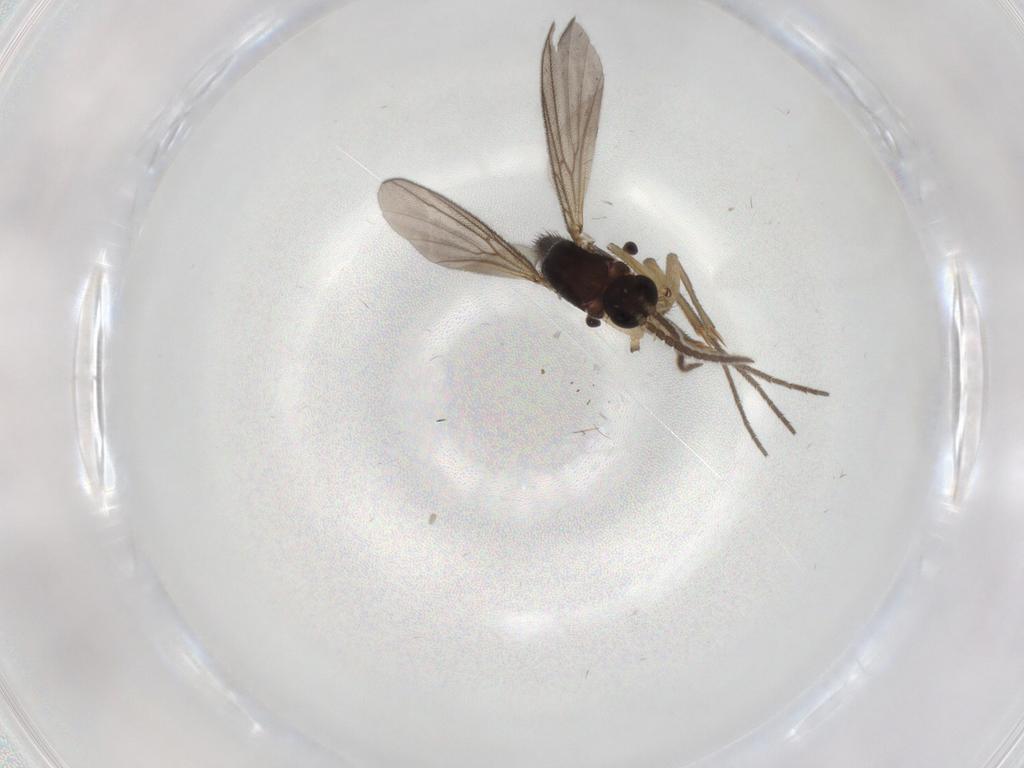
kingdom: Animalia
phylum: Arthropoda
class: Insecta
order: Diptera
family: Mycetophilidae
